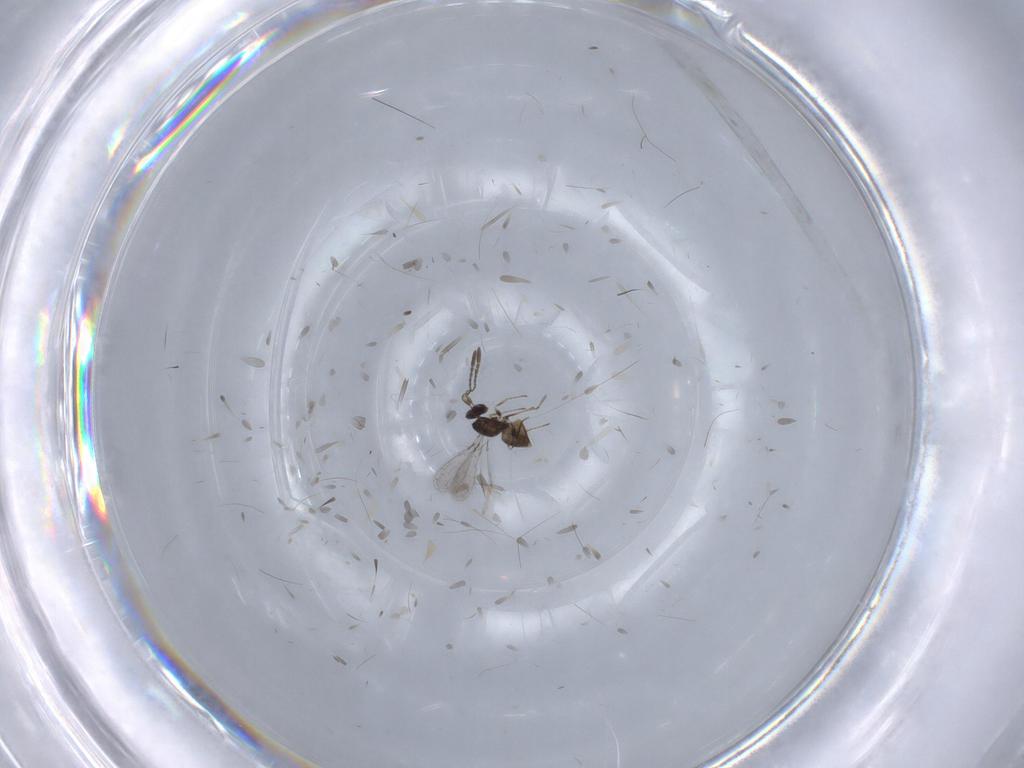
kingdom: Animalia
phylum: Arthropoda
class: Insecta
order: Hymenoptera
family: Mymaridae
